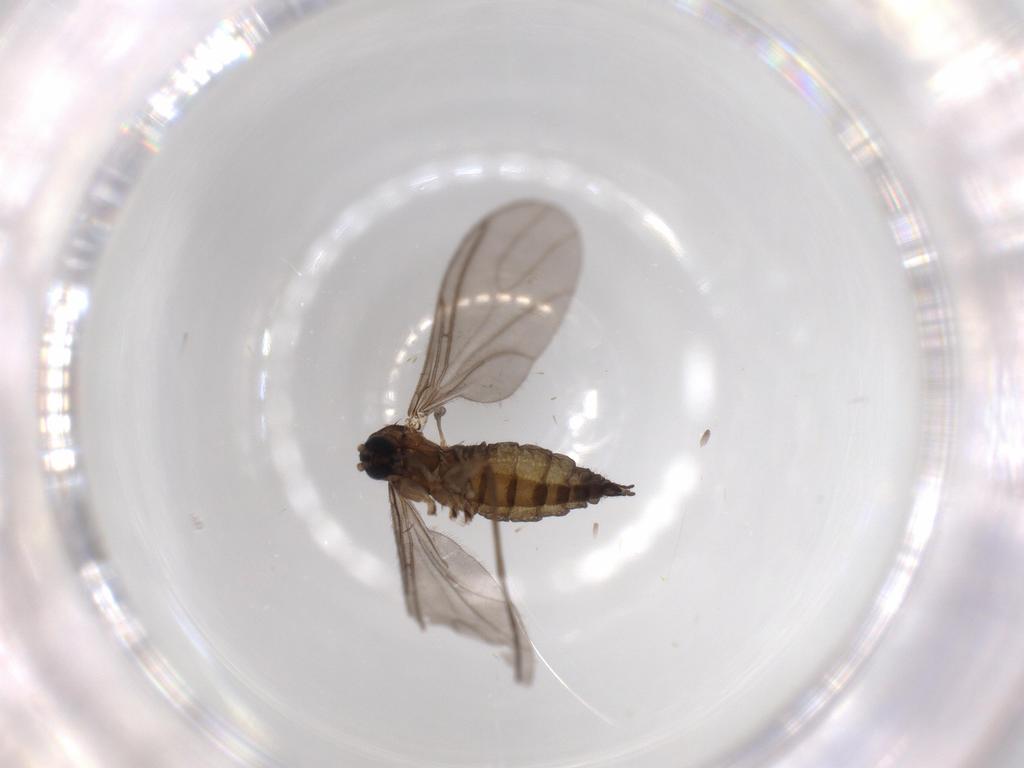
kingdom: Animalia
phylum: Arthropoda
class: Insecta
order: Diptera
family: Sciaridae
